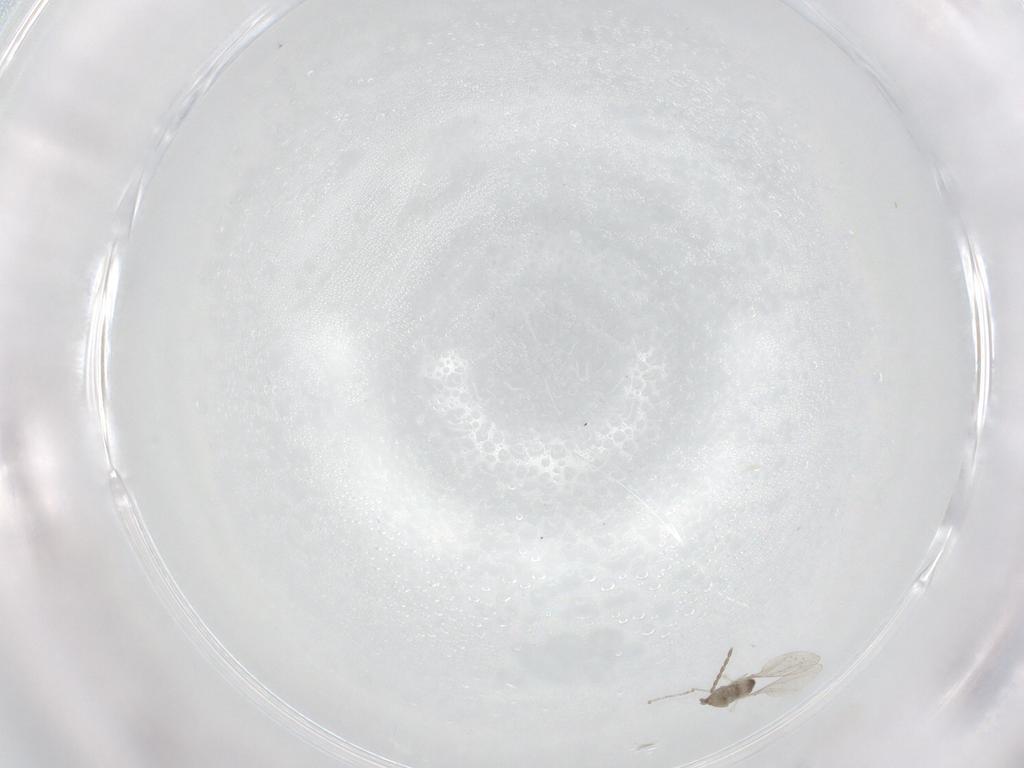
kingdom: Animalia
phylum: Arthropoda
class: Insecta
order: Diptera
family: Cecidomyiidae
